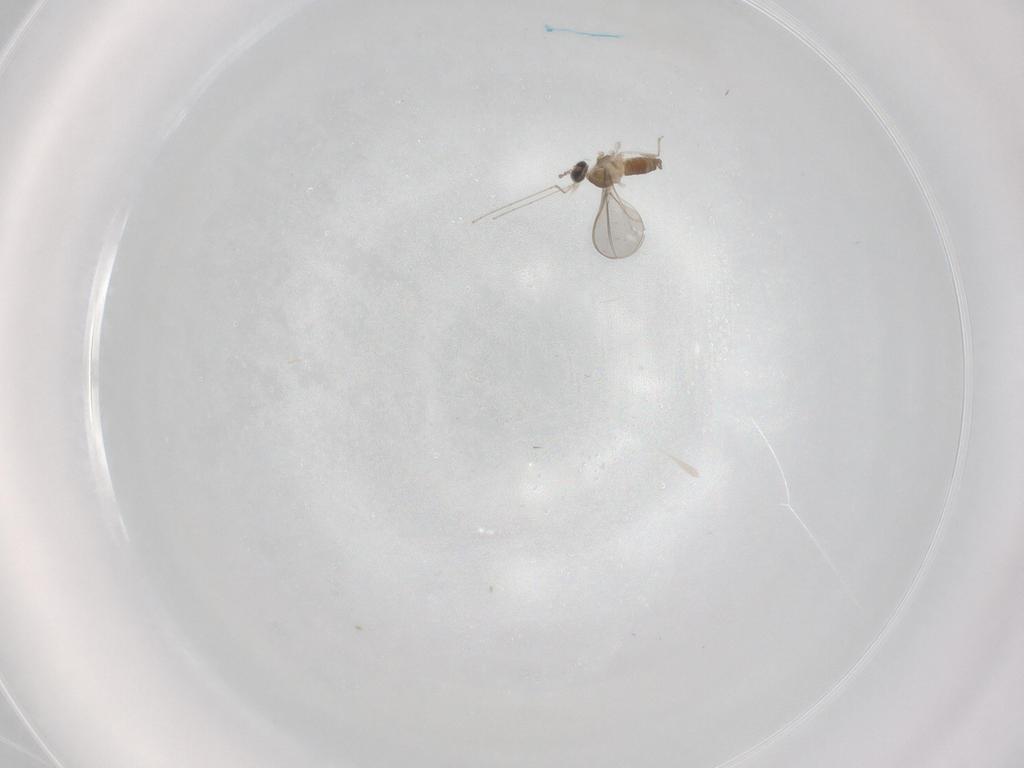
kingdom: Animalia
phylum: Arthropoda
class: Insecta
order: Diptera
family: Cecidomyiidae
